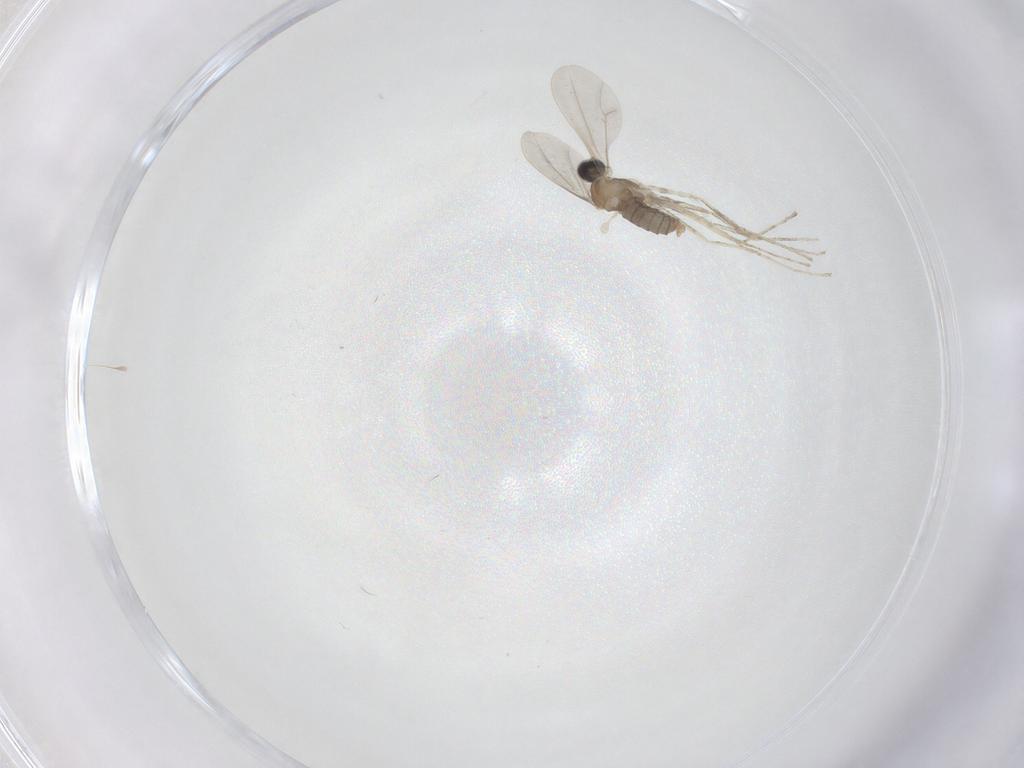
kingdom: Animalia
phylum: Arthropoda
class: Insecta
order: Diptera
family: Cecidomyiidae
